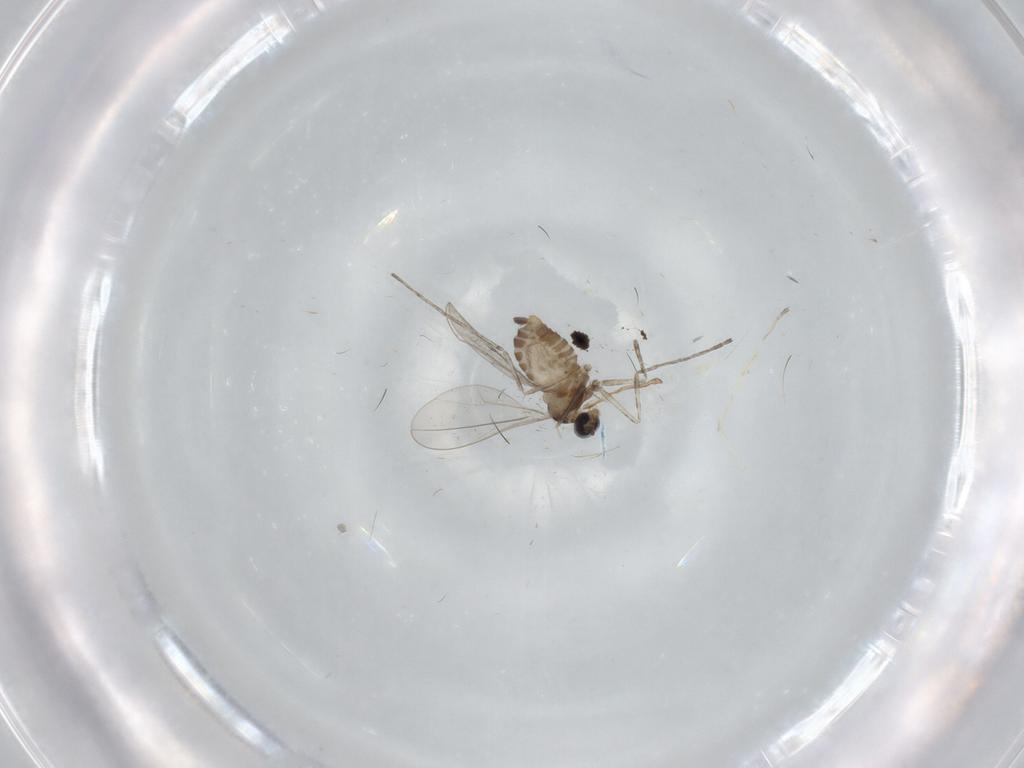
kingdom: Animalia
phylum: Arthropoda
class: Insecta
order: Diptera
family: Cecidomyiidae
